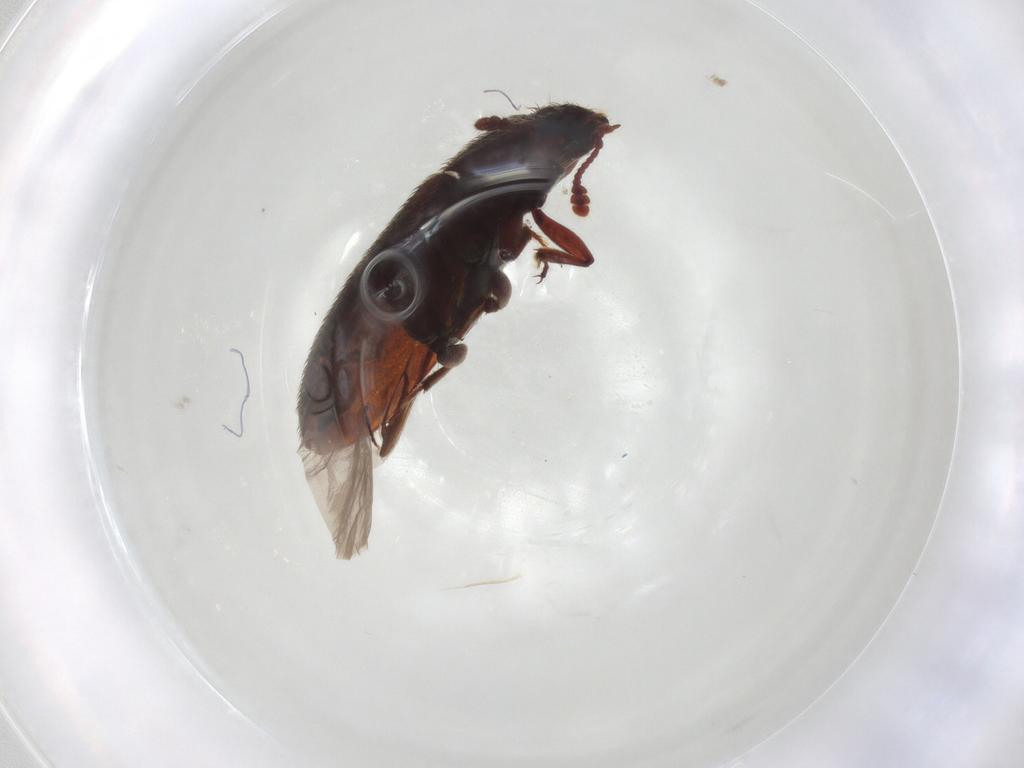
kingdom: Animalia
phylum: Arthropoda
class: Insecta
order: Coleoptera
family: Biphyllidae
